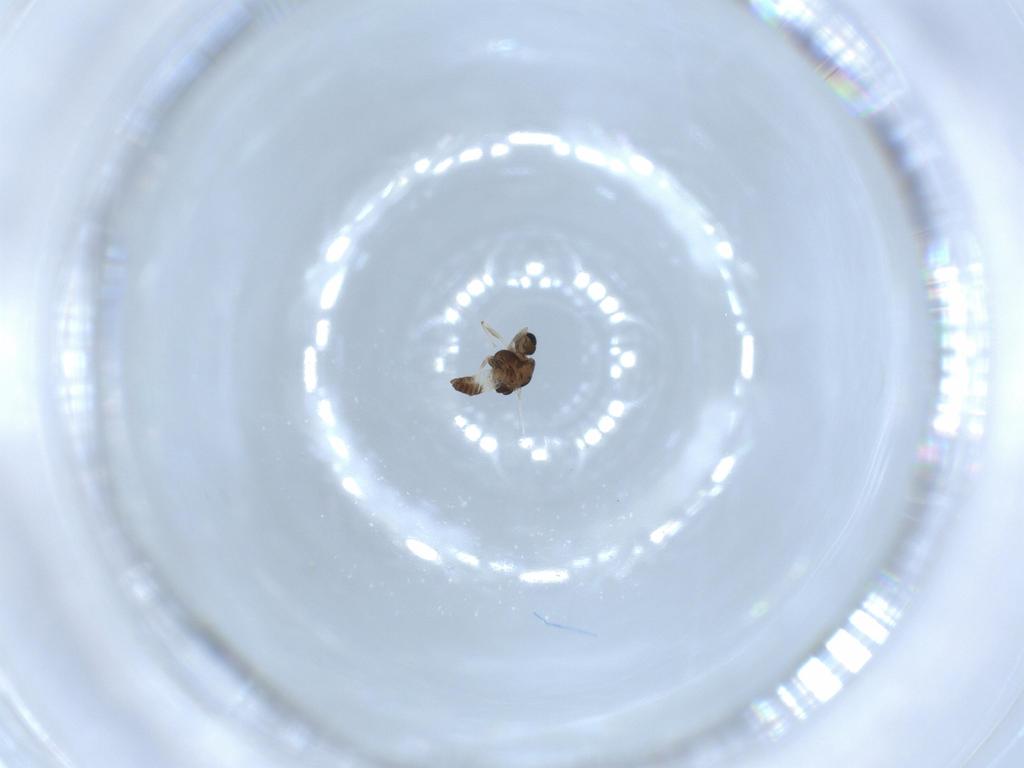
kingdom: Animalia
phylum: Arthropoda
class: Insecta
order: Diptera
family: Chironomidae
